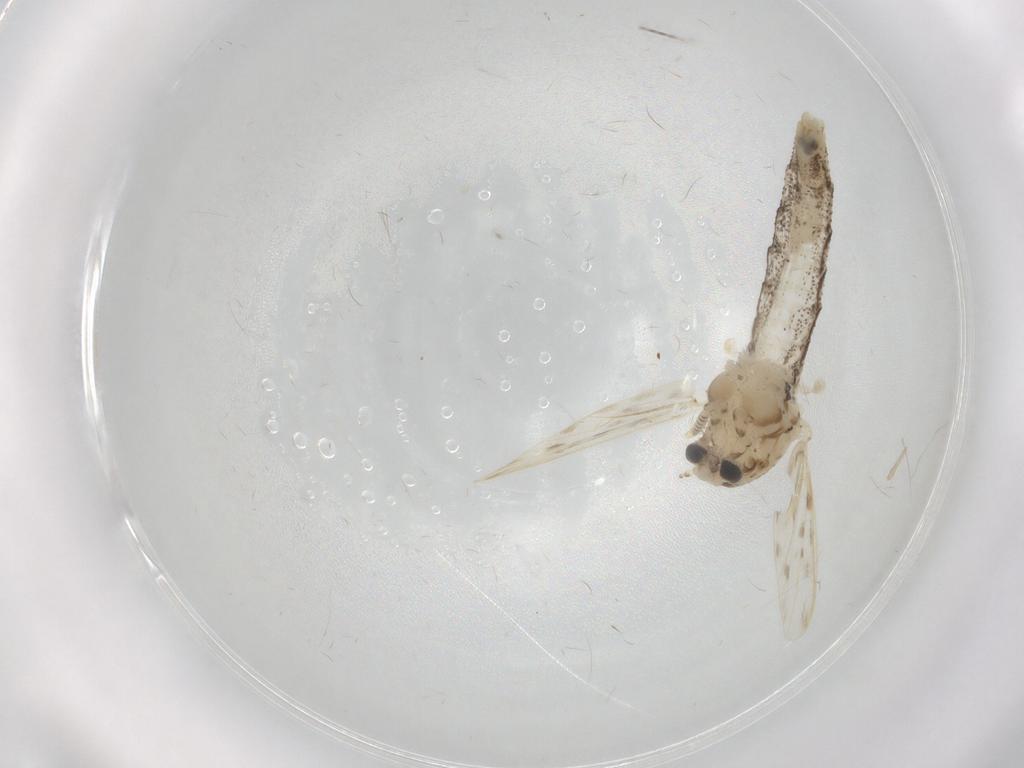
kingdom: Animalia
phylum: Arthropoda
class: Insecta
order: Diptera
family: Chaoboridae
